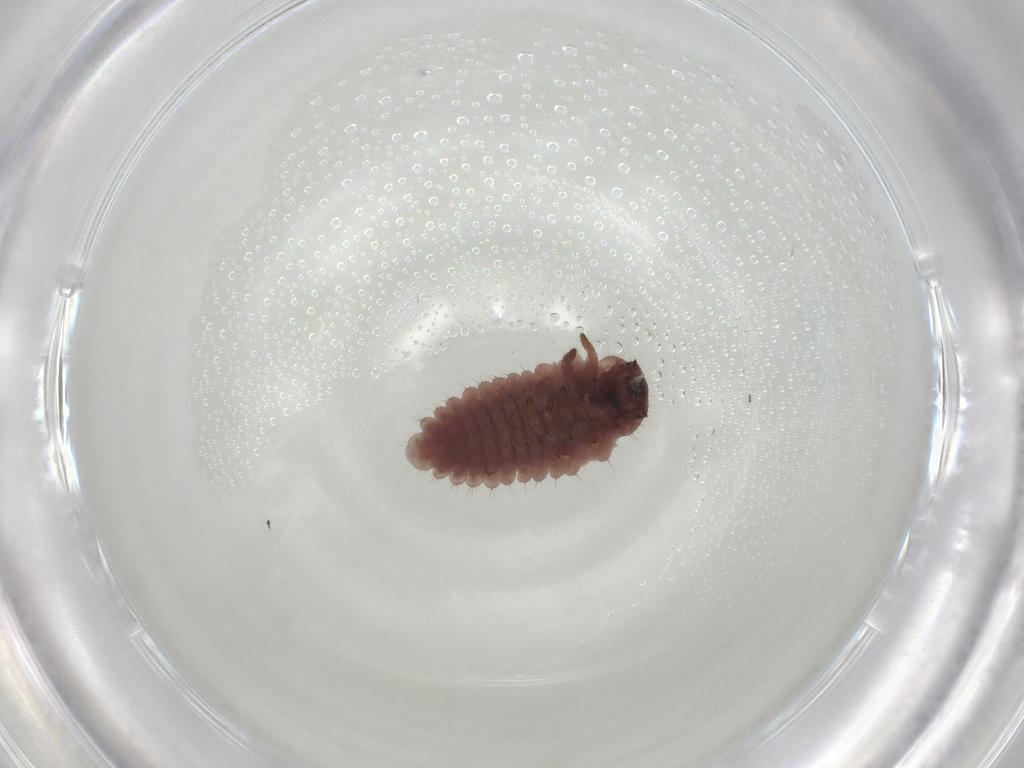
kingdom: Animalia
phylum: Arthropoda
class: Insecta
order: Coleoptera
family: Coccinellidae
